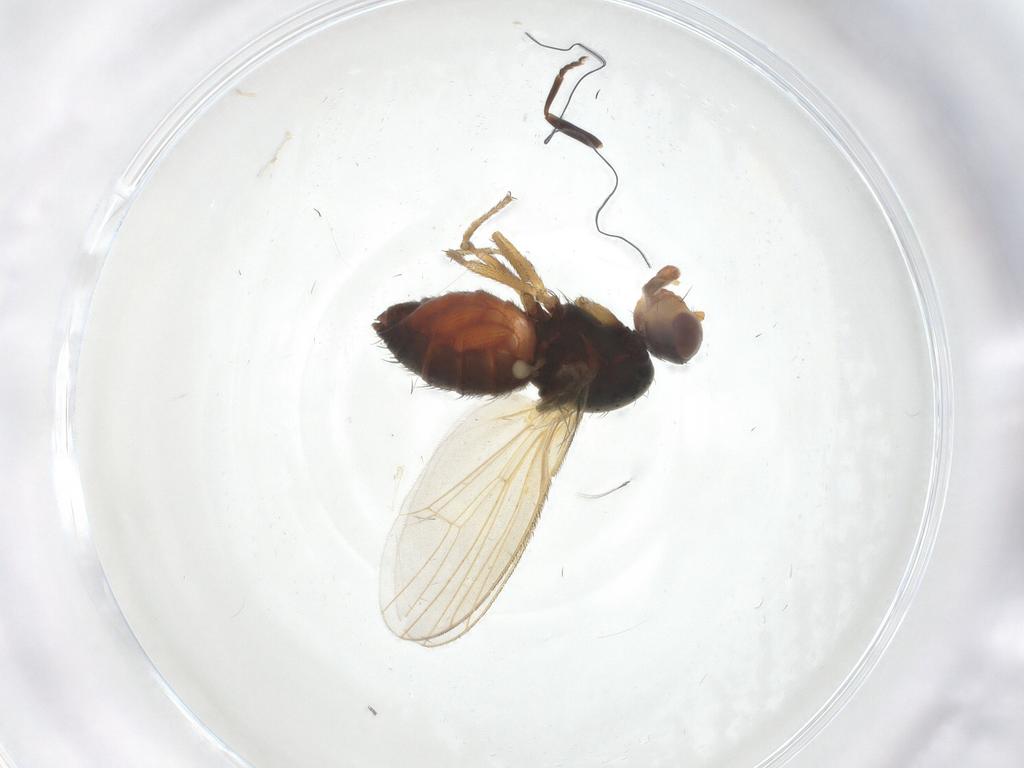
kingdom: Animalia
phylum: Arthropoda
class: Insecta
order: Diptera
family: Heleomyzidae
